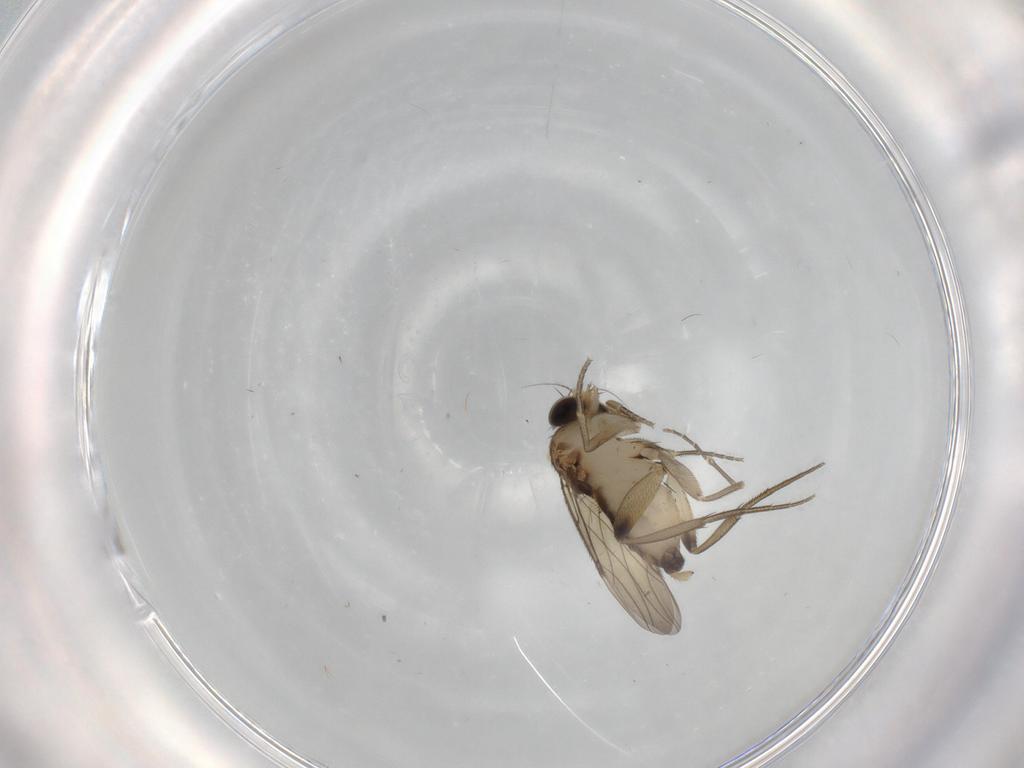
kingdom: Animalia
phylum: Arthropoda
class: Insecta
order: Diptera
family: Phoridae
